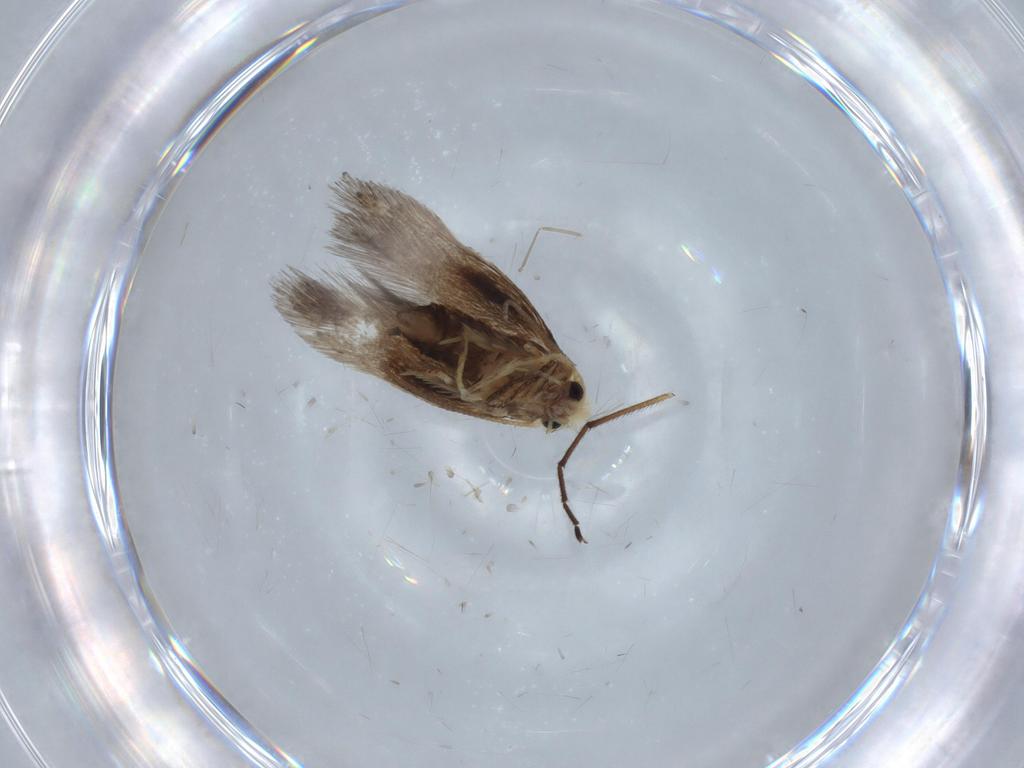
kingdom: Animalia
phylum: Arthropoda
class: Insecta
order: Lepidoptera
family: Nepticulidae
